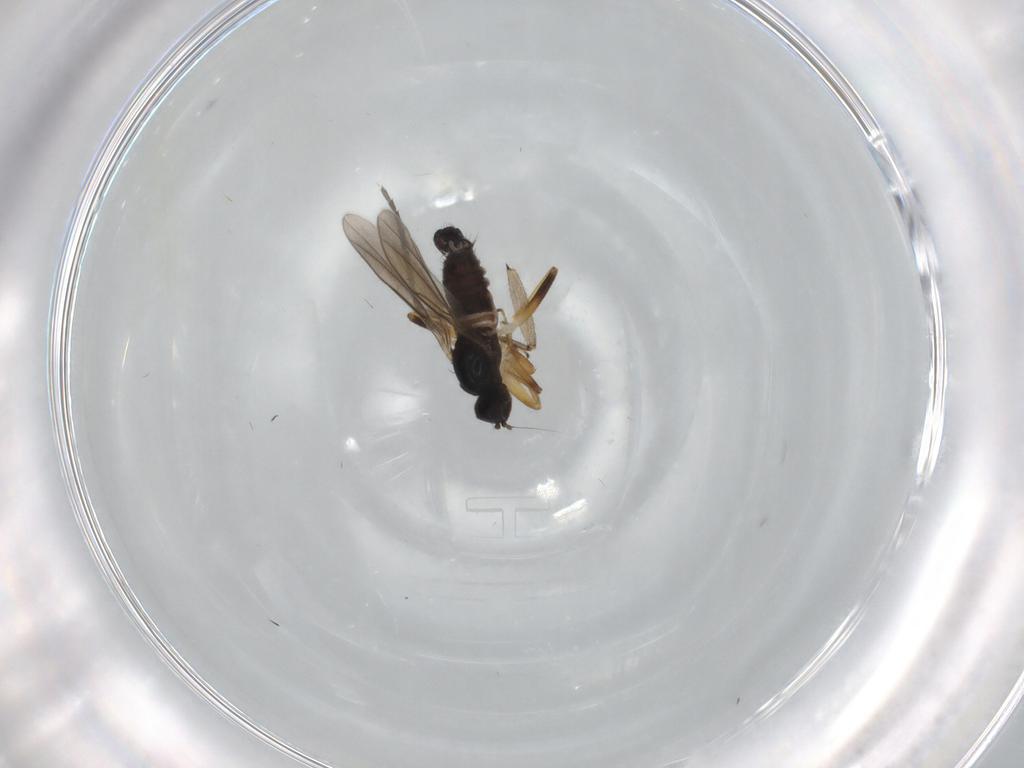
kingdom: Animalia
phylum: Arthropoda
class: Insecta
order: Diptera
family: Hybotidae
